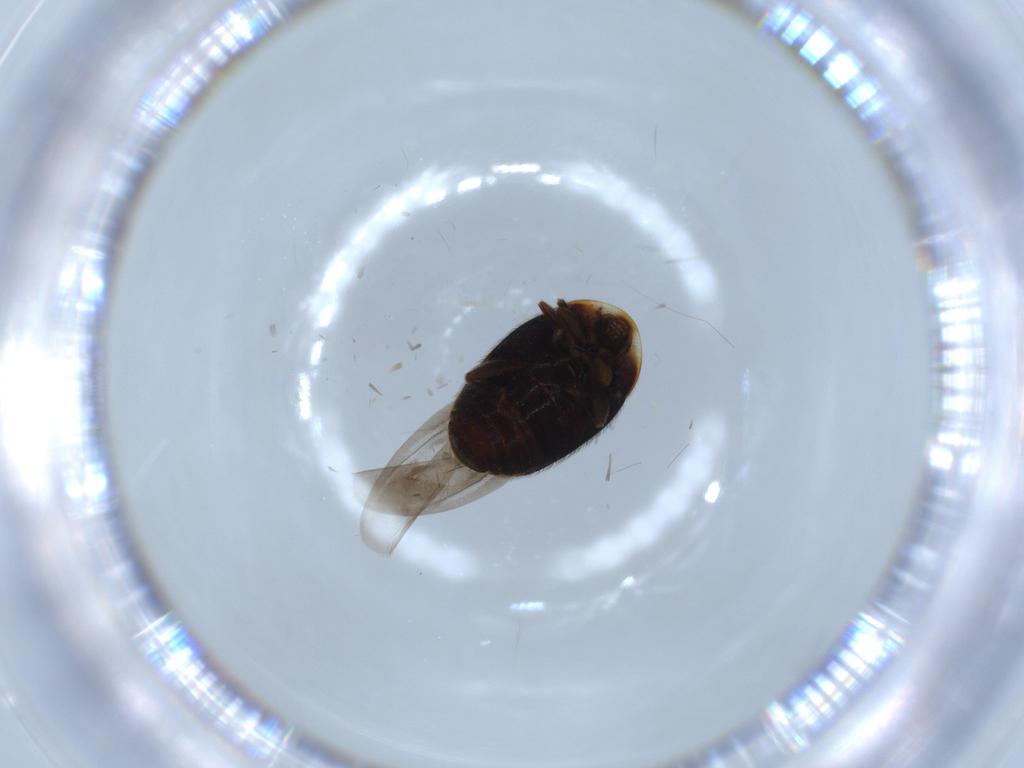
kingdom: Animalia
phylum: Arthropoda
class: Insecta
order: Coleoptera
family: Corylophidae
